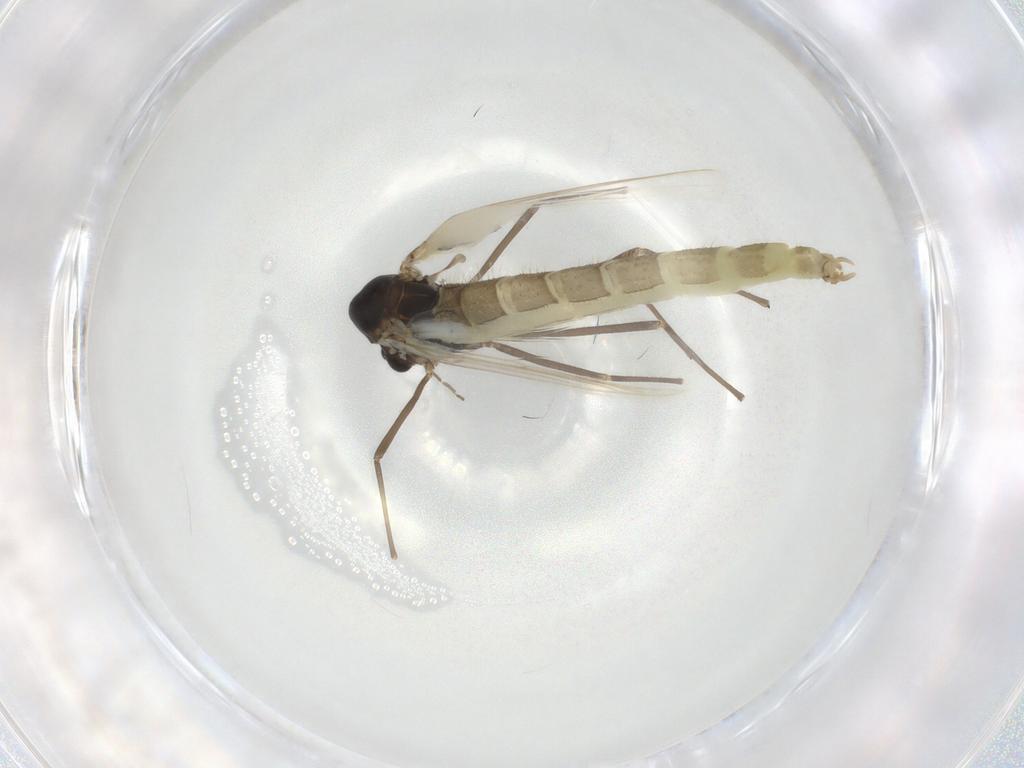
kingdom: Animalia
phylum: Arthropoda
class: Insecta
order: Diptera
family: Chironomidae
